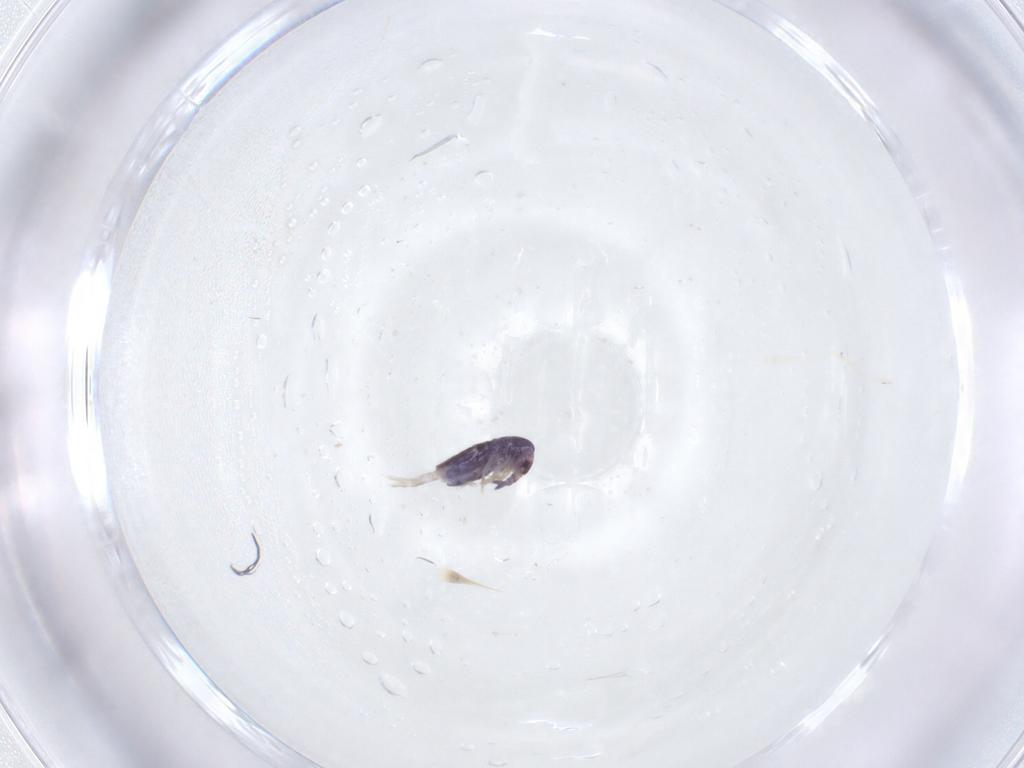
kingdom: Animalia
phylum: Arthropoda
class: Collembola
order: Entomobryomorpha
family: Entomobryidae
